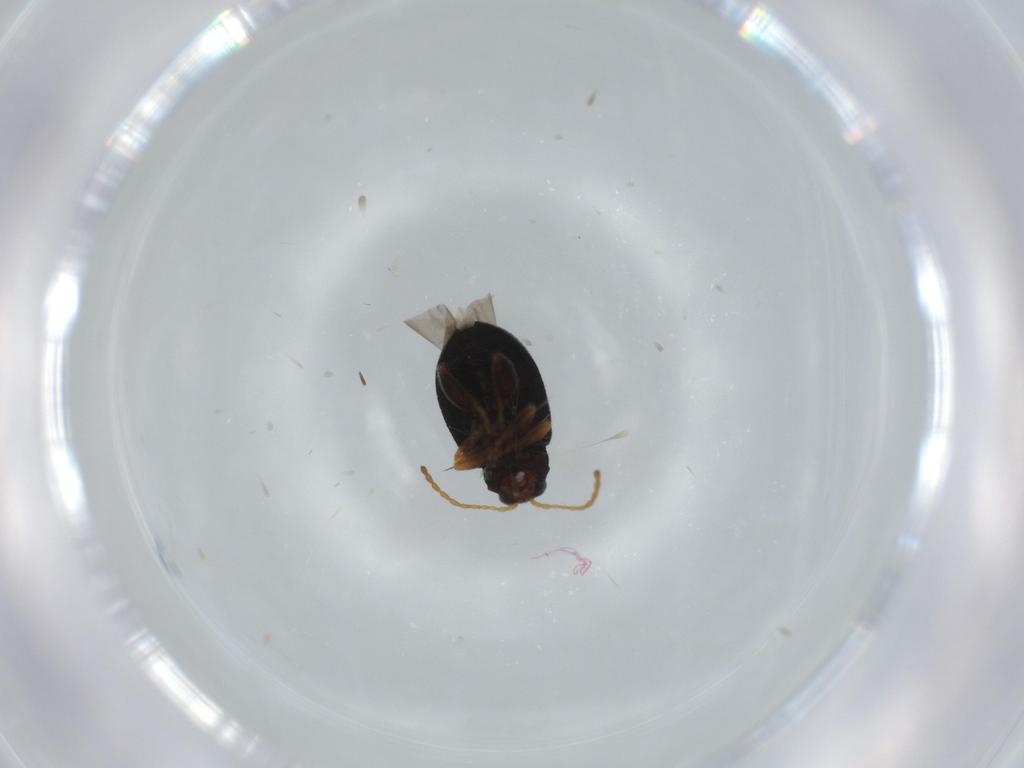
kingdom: Animalia
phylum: Arthropoda
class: Insecta
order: Coleoptera
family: Chrysomelidae
